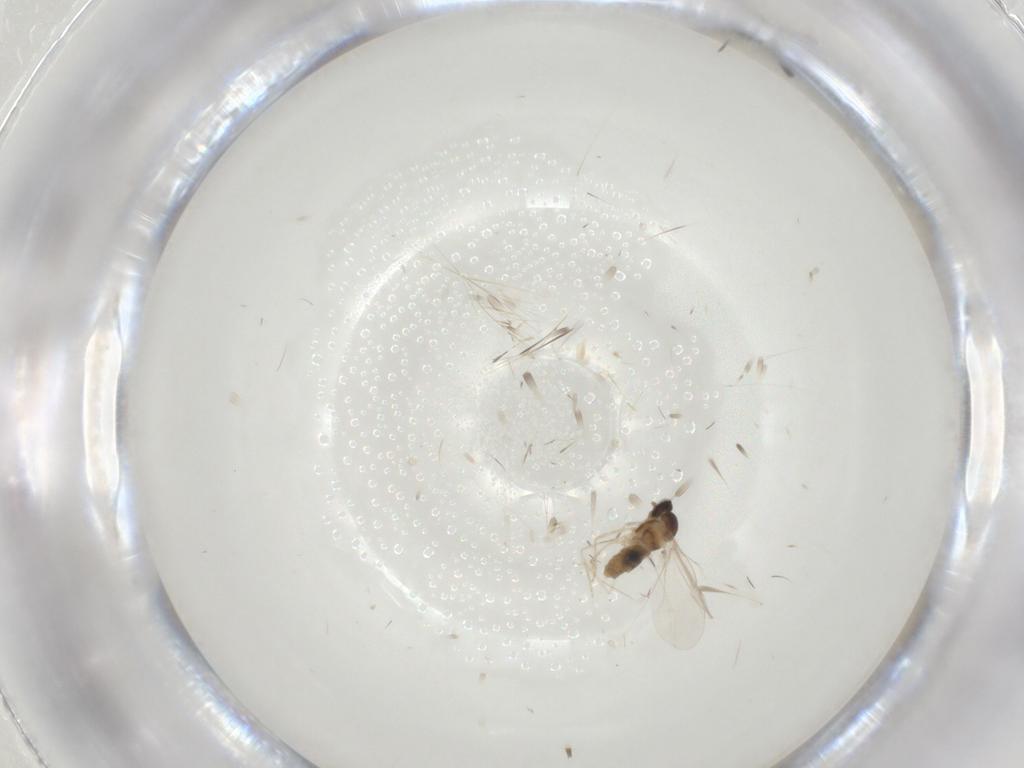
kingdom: Animalia
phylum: Arthropoda
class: Insecta
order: Diptera
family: Cecidomyiidae
